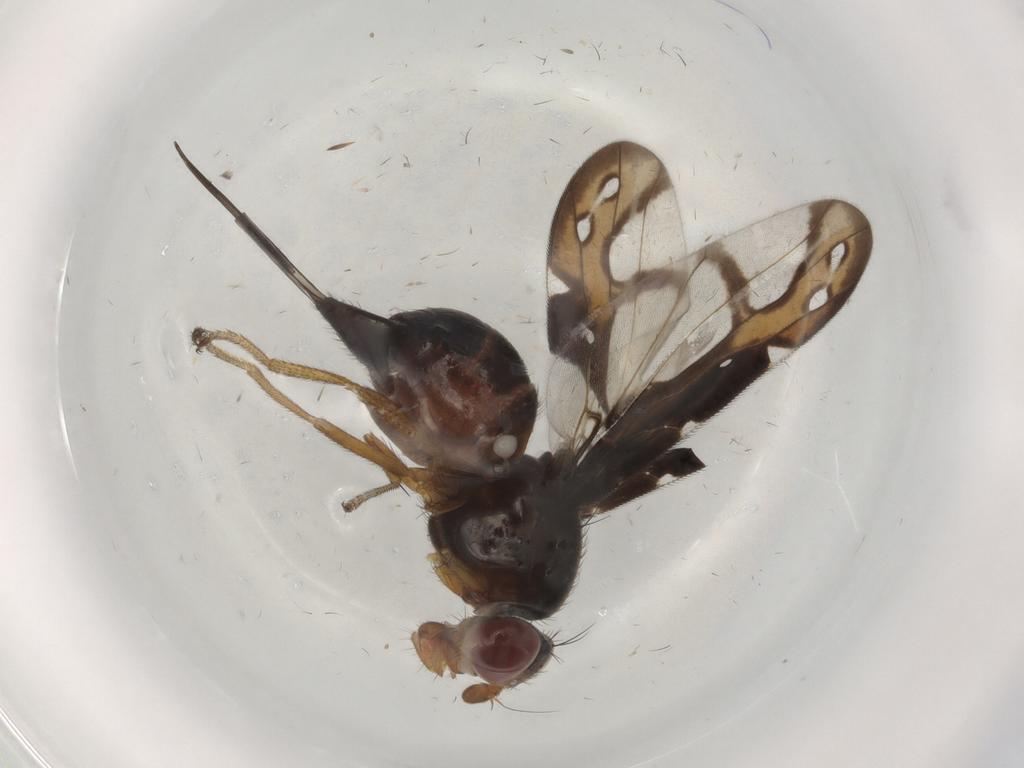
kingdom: Animalia
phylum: Arthropoda
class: Insecta
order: Diptera
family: Ulidiidae
